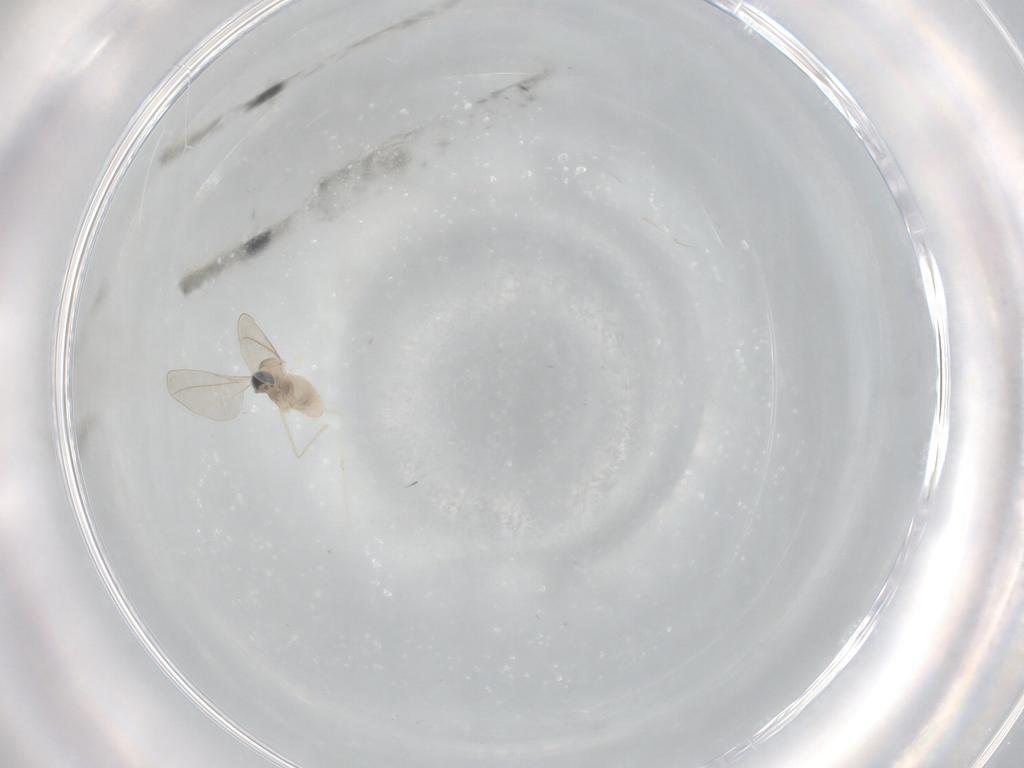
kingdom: Animalia
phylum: Arthropoda
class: Insecta
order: Diptera
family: Cecidomyiidae
